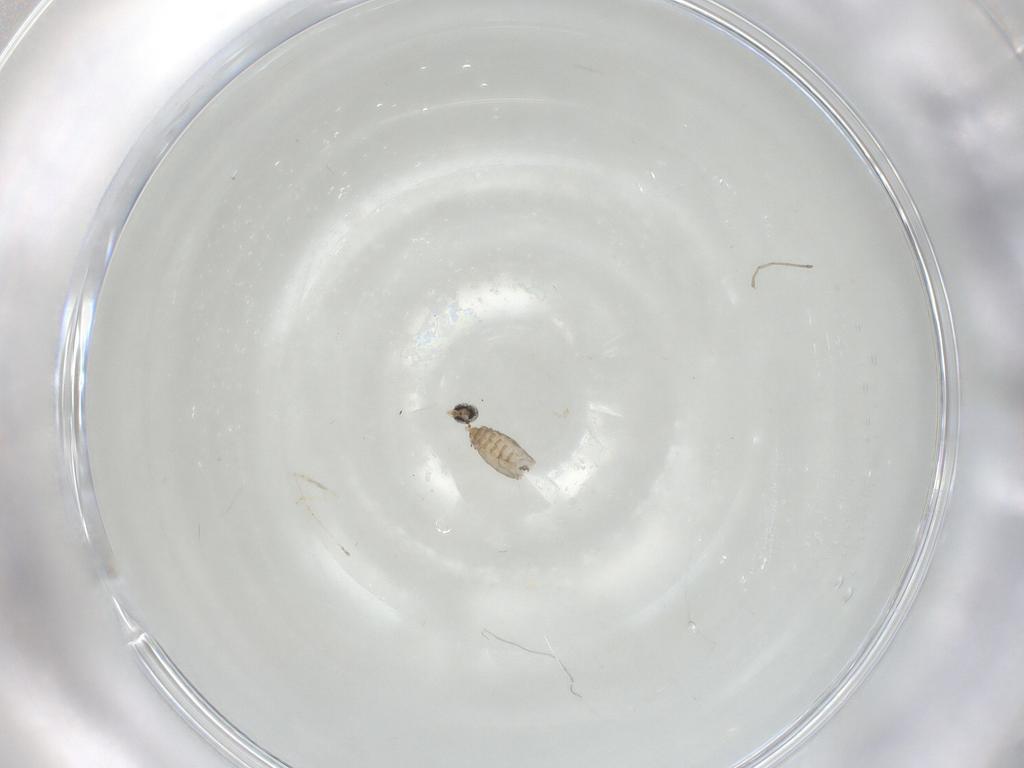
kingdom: Animalia
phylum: Arthropoda
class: Insecta
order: Diptera
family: Cecidomyiidae
